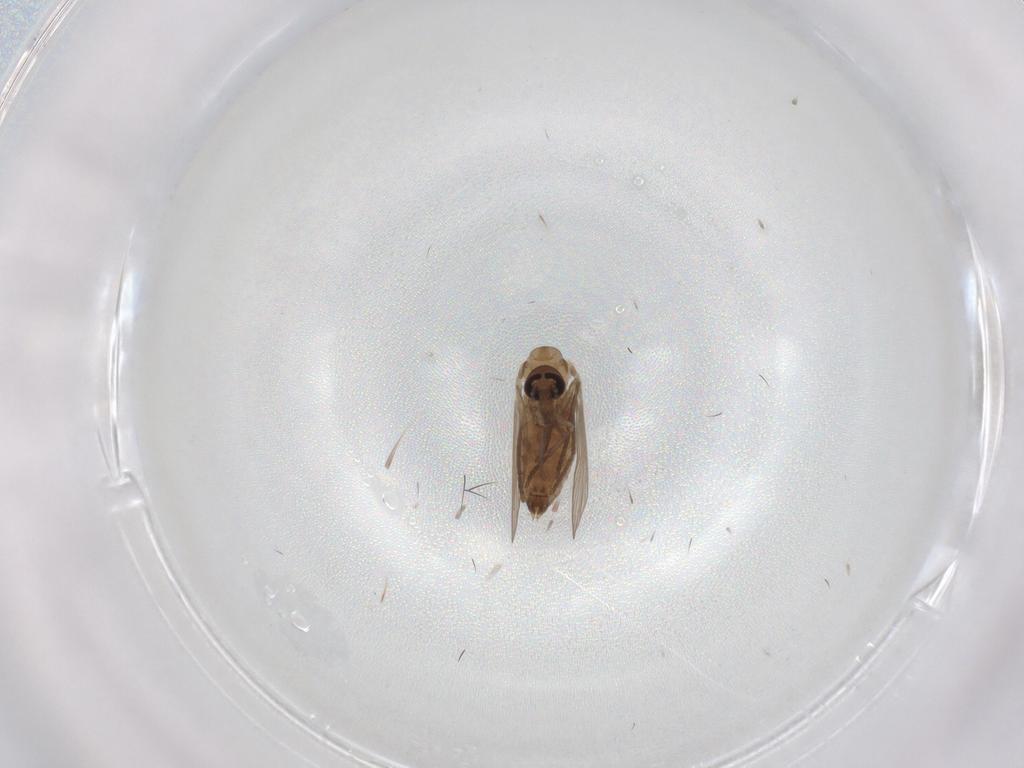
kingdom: Animalia
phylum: Arthropoda
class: Insecta
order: Diptera
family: Psychodidae
